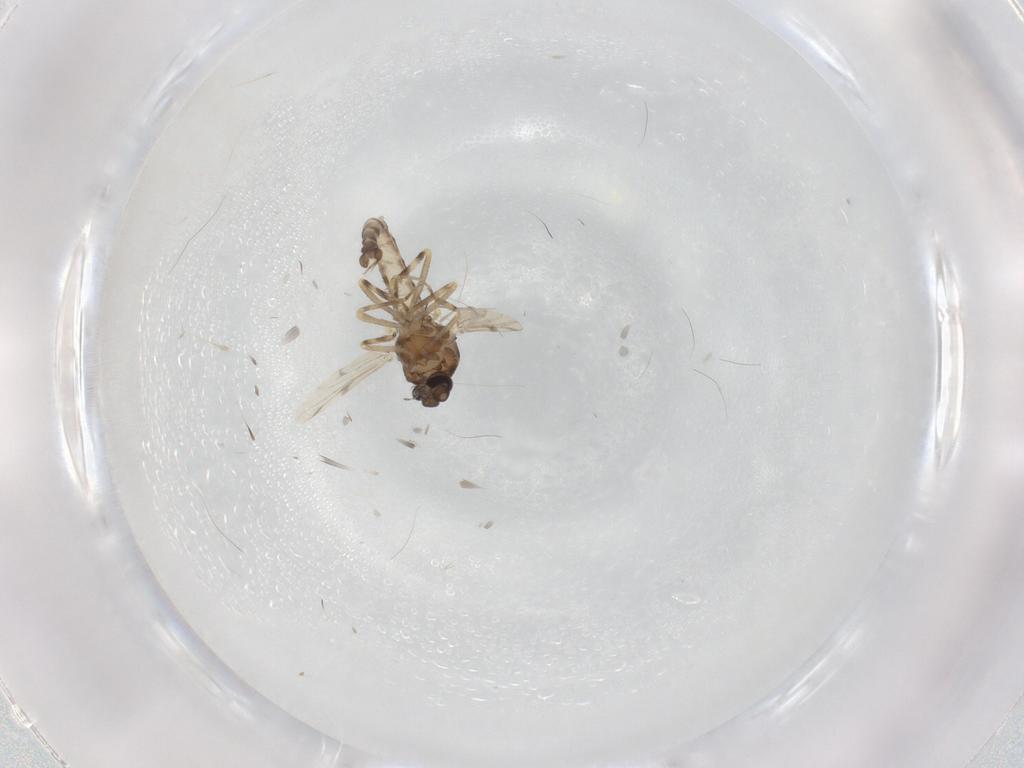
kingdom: Animalia
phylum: Arthropoda
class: Insecta
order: Diptera
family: Ceratopogonidae
